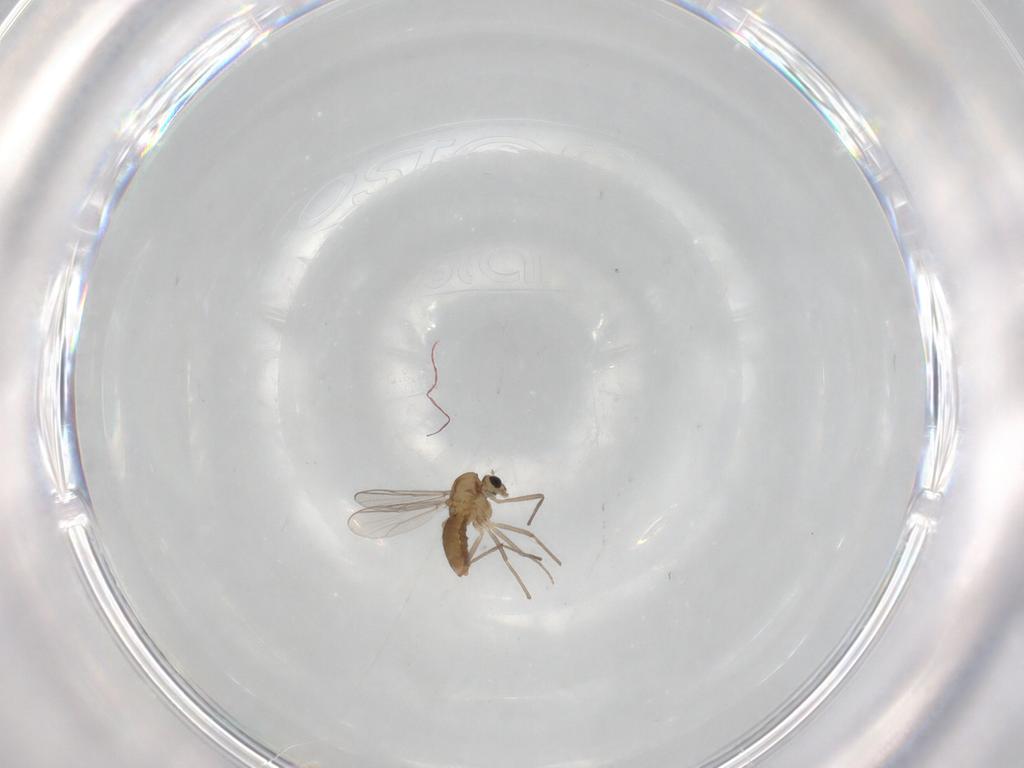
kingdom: Animalia
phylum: Arthropoda
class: Insecta
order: Diptera
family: Chironomidae
